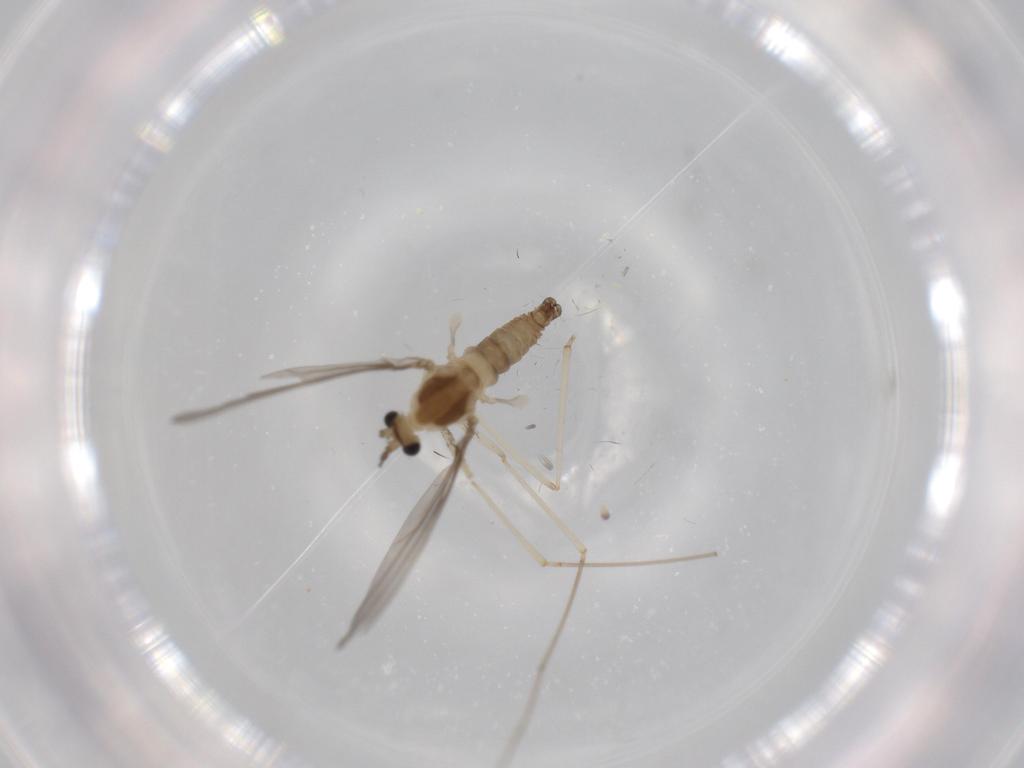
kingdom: Animalia
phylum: Arthropoda
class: Insecta
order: Diptera
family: Cecidomyiidae
